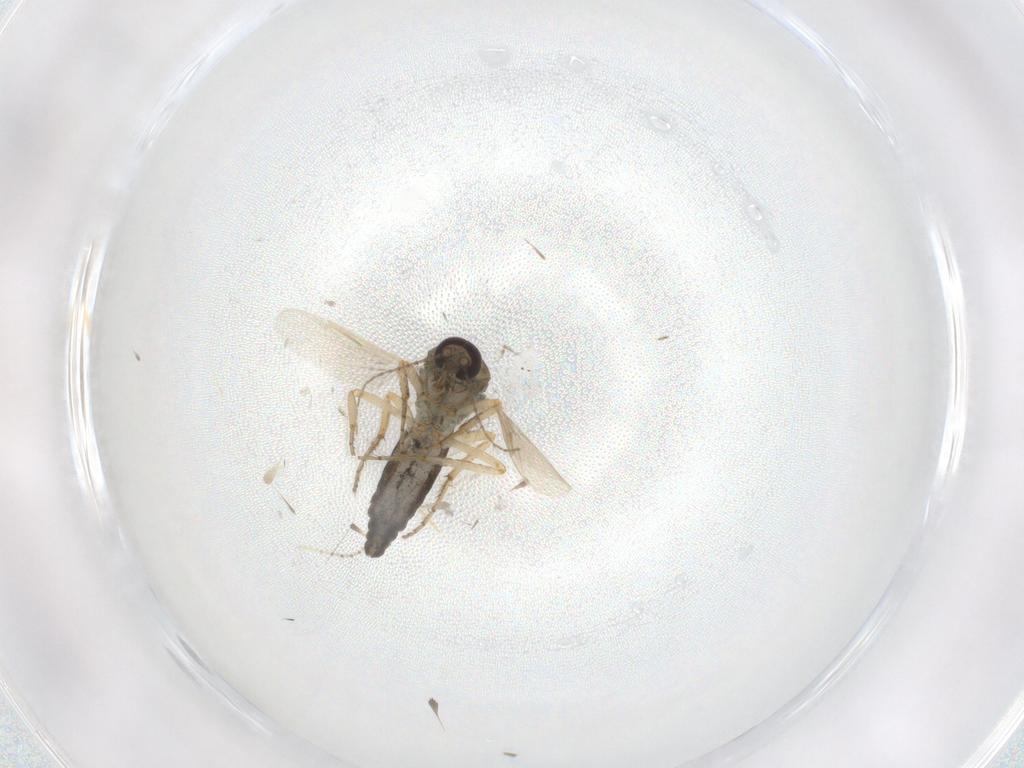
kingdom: Animalia
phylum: Arthropoda
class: Insecta
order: Diptera
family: Ceratopogonidae
